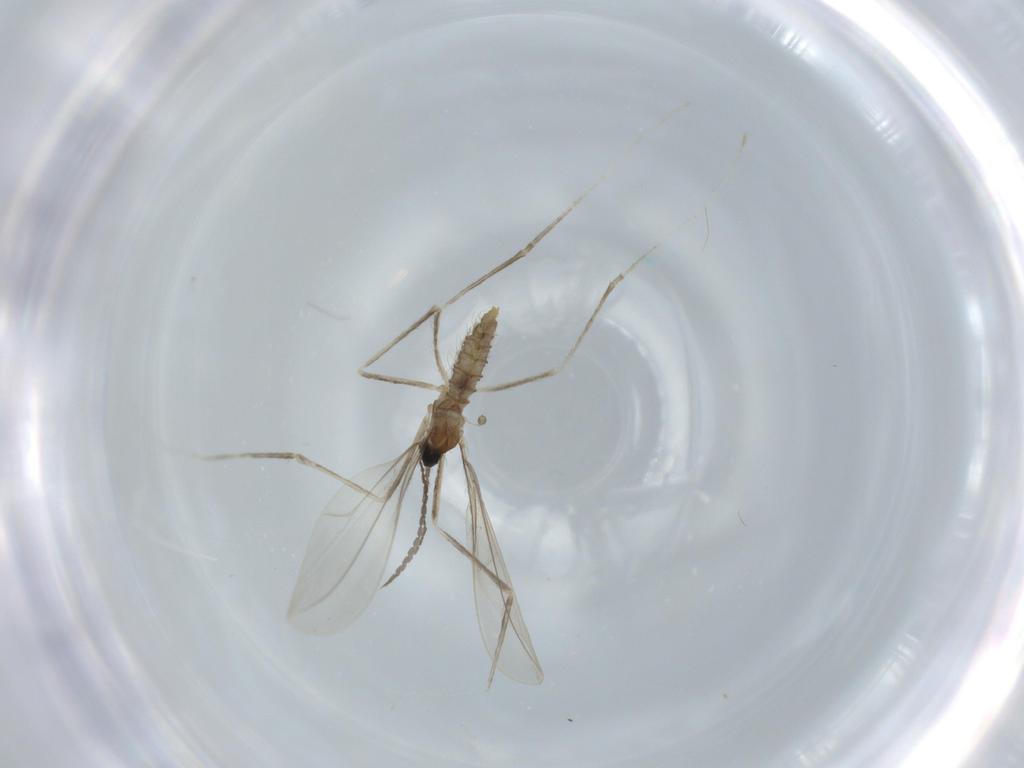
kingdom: Animalia
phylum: Arthropoda
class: Insecta
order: Diptera
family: Cecidomyiidae
